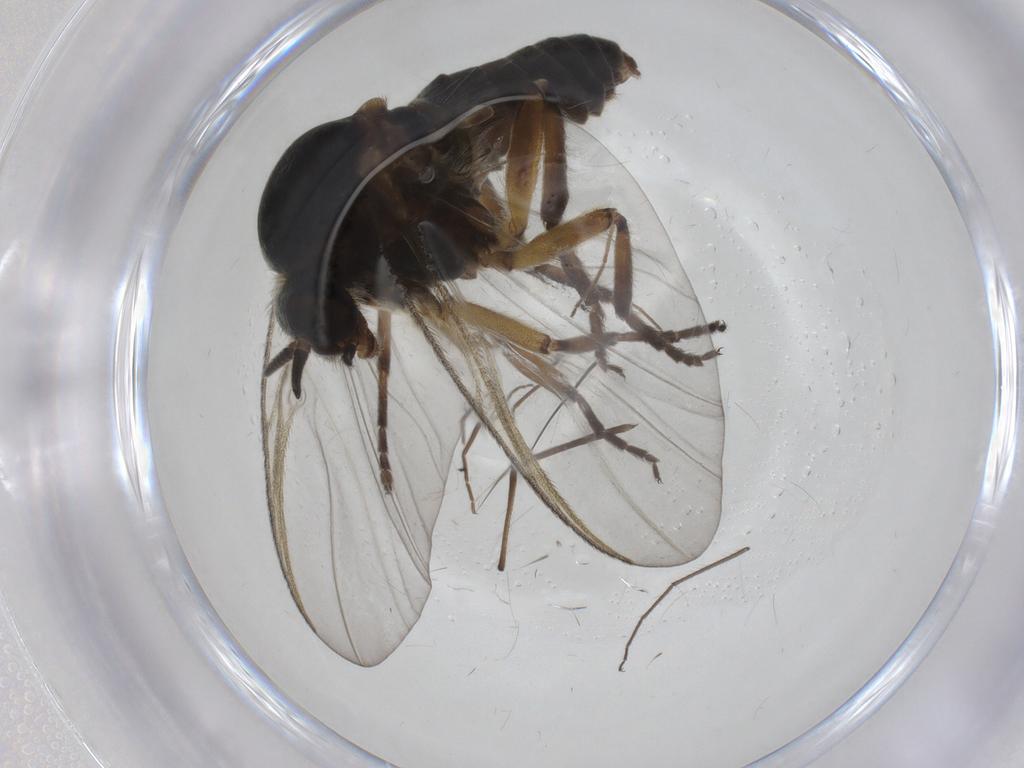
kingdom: Animalia
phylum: Arthropoda
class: Insecta
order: Diptera
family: Simuliidae
